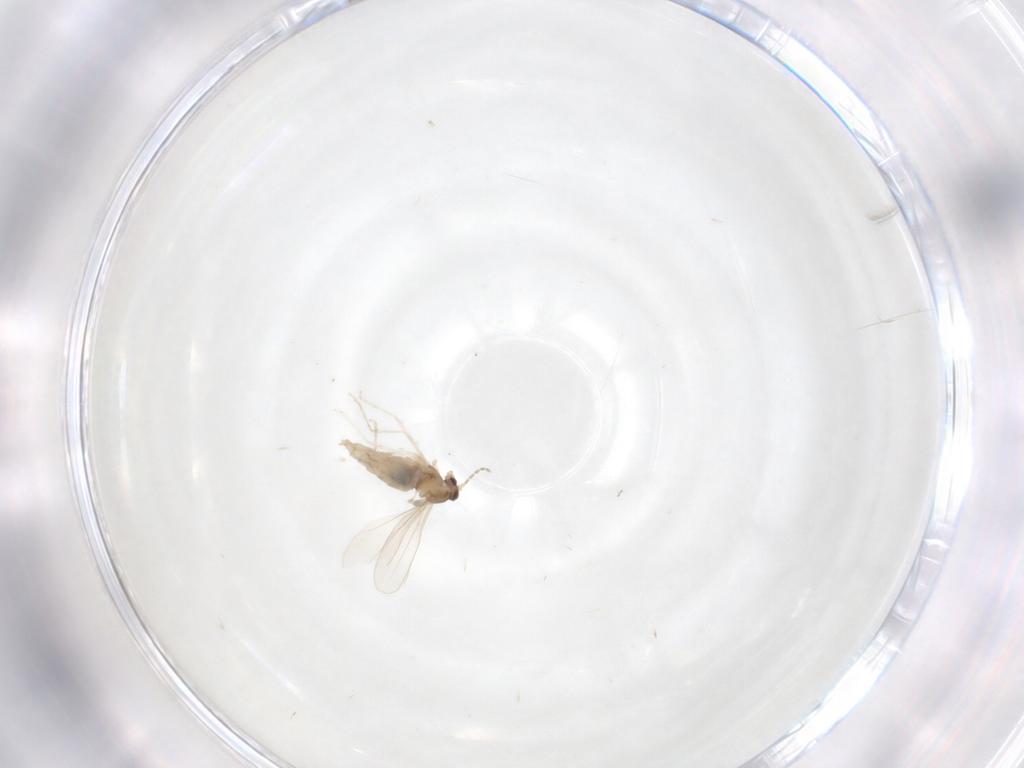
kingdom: Animalia
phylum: Arthropoda
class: Insecta
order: Diptera
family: Cecidomyiidae
